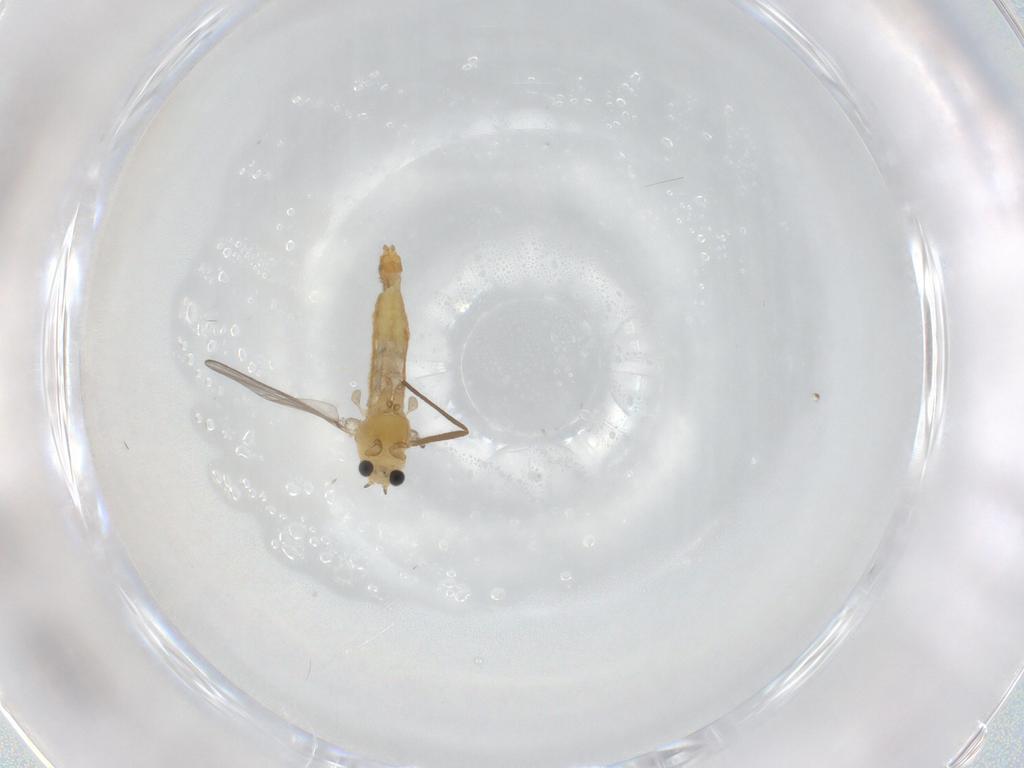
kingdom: Animalia
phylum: Arthropoda
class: Insecta
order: Diptera
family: Chironomidae
